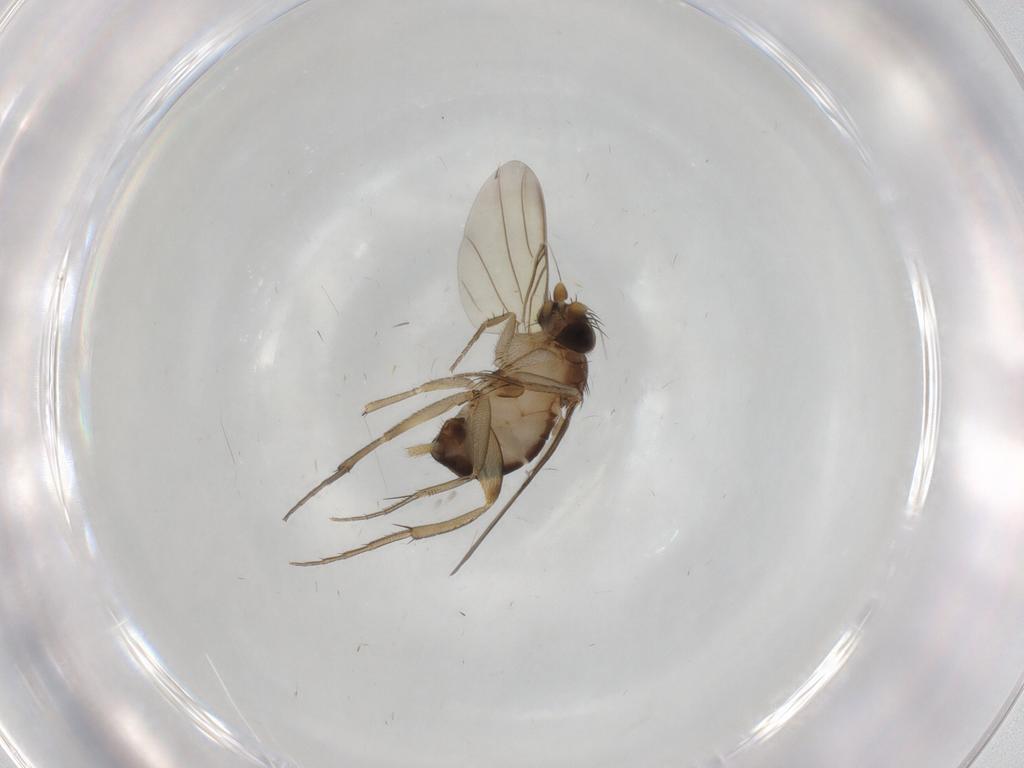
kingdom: Animalia
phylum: Arthropoda
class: Insecta
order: Diptera
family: Phoridae
